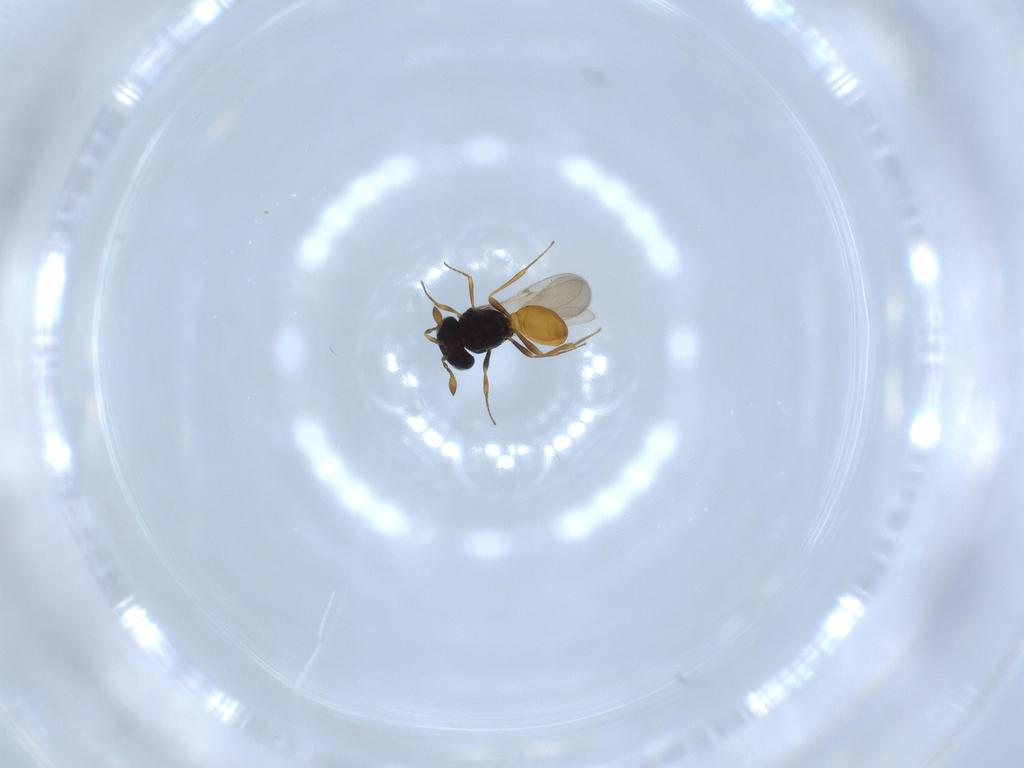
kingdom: Animalia
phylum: Arthropoda
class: Insecta
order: Hymenoptera
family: Scelionidae
